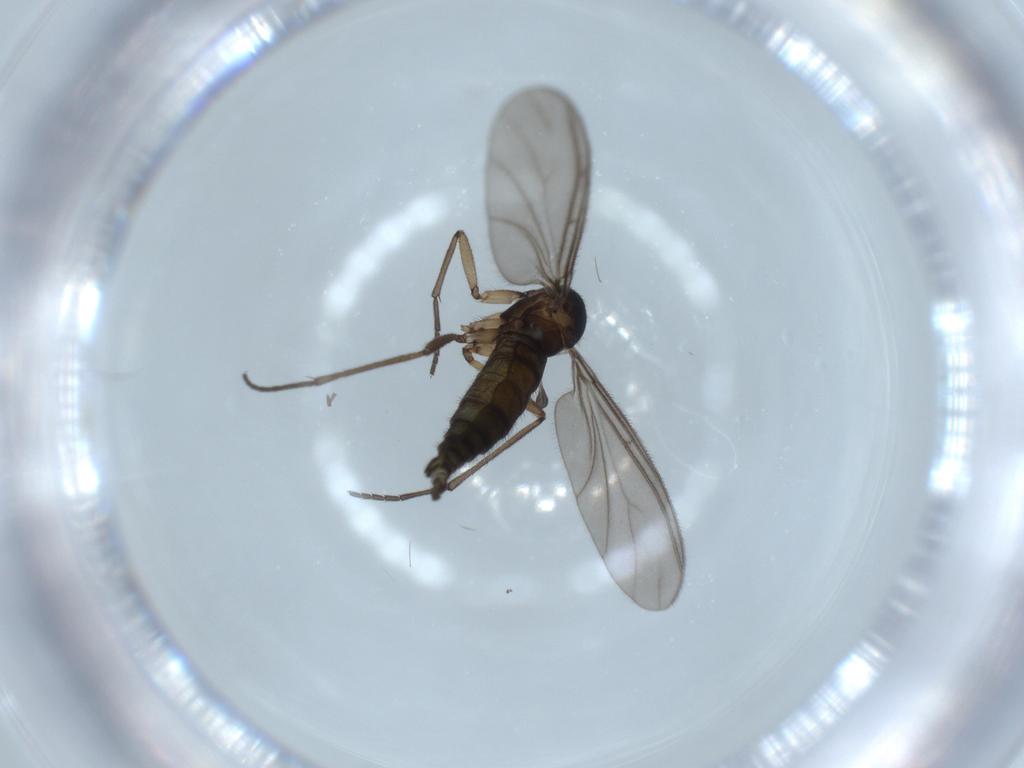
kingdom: Animalia
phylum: Arthropoda
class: Insecta
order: Diptera
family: Sciaridae
